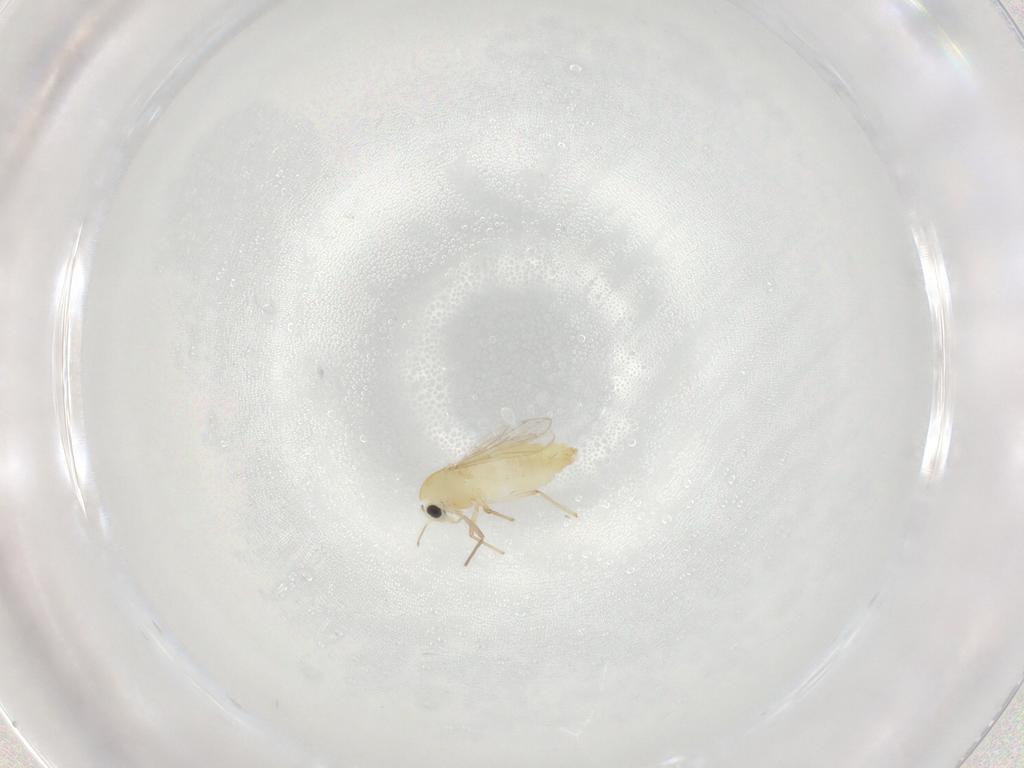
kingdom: Animalia
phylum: Arthropoda
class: Insecta
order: Diptera
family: Chironomidae
